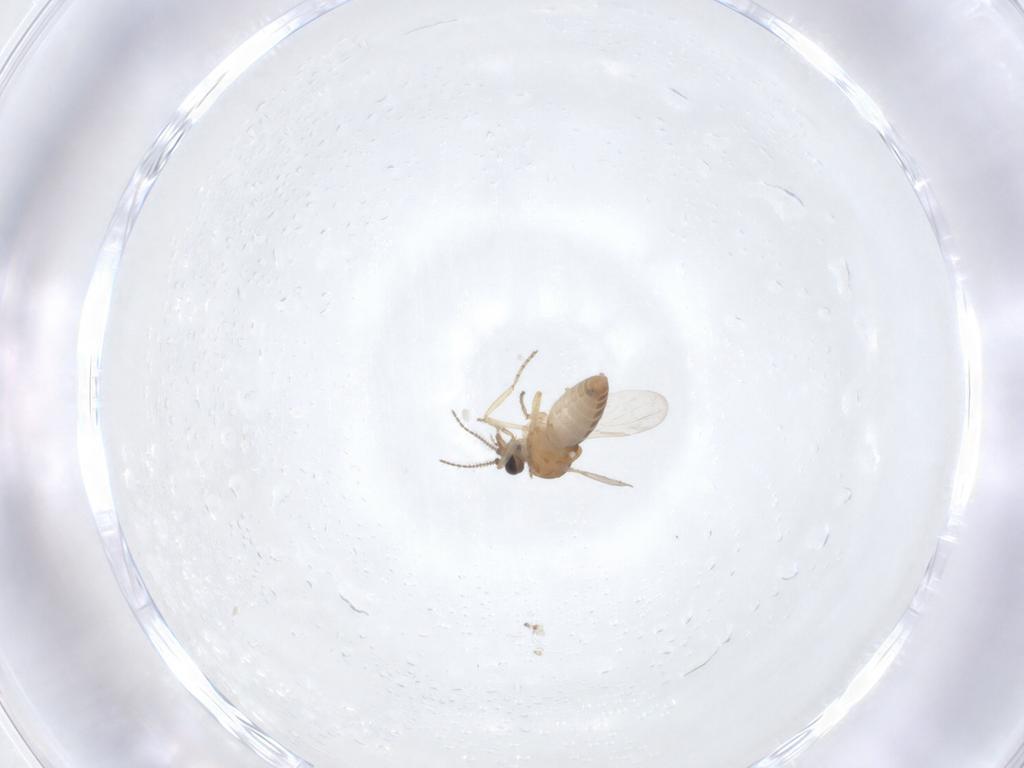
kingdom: Animalia
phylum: Arthropoda
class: Insecta
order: Diptera
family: Ceratopogonidae
